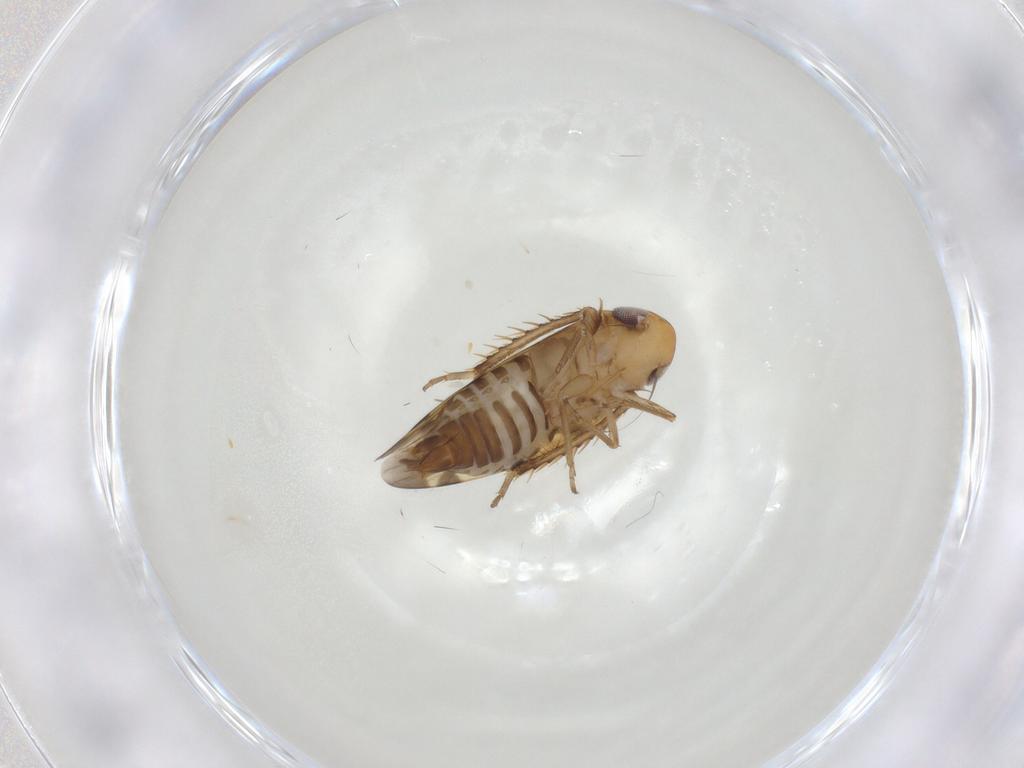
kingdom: Animalia
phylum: Arthropoda
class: Insecta
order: Hemiptera
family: Cicadellidae
